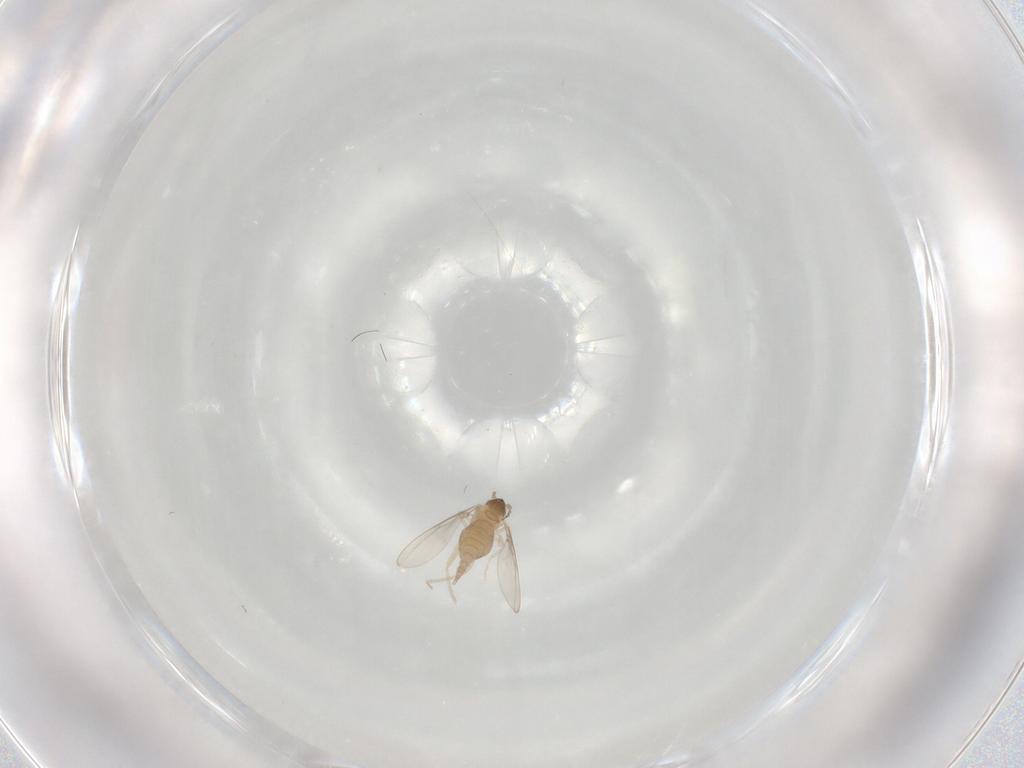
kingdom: Animalia
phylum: Arthropoda
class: Insecta
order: Diptera
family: Cecidomyiidae
